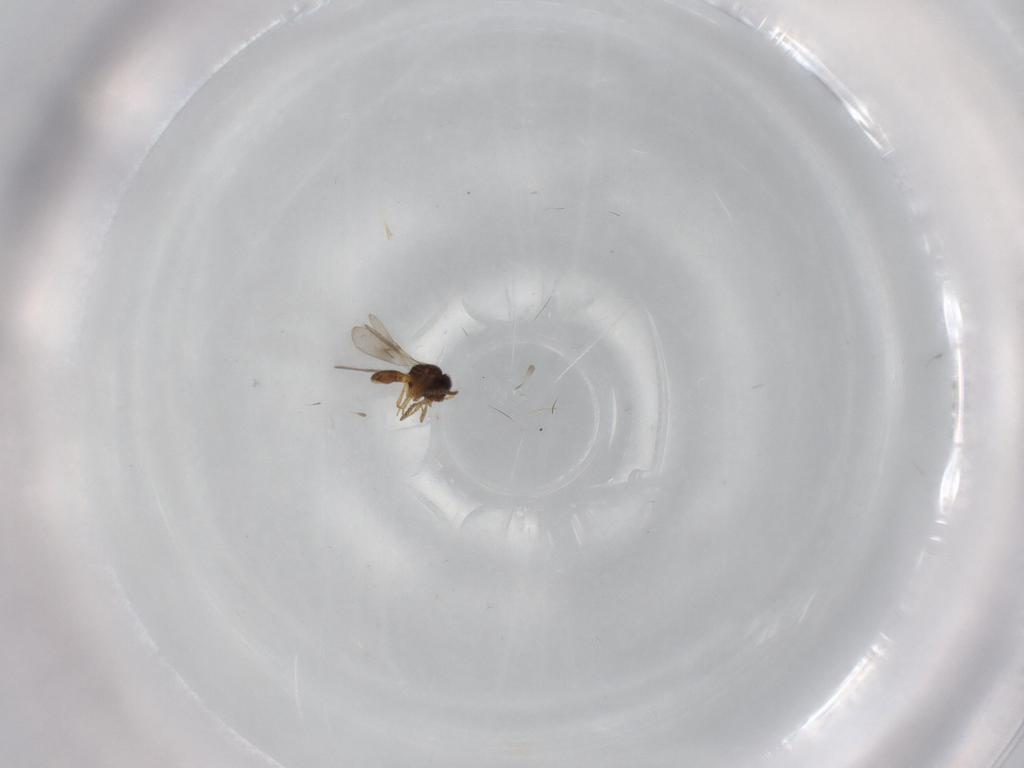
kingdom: Animalia
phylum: Arthropoda
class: Insecta
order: Hymenoptera
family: Scelionidae
